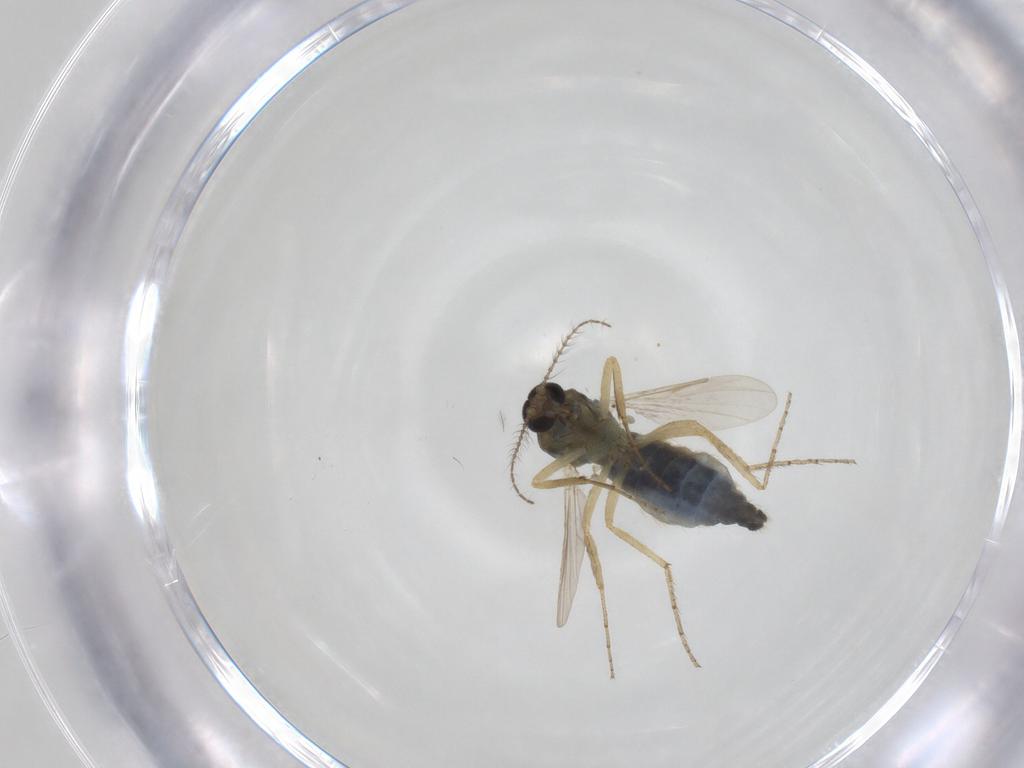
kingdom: Animalia
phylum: Arthropoda
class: Insecta
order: Diptera
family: Ceratopogonidae
